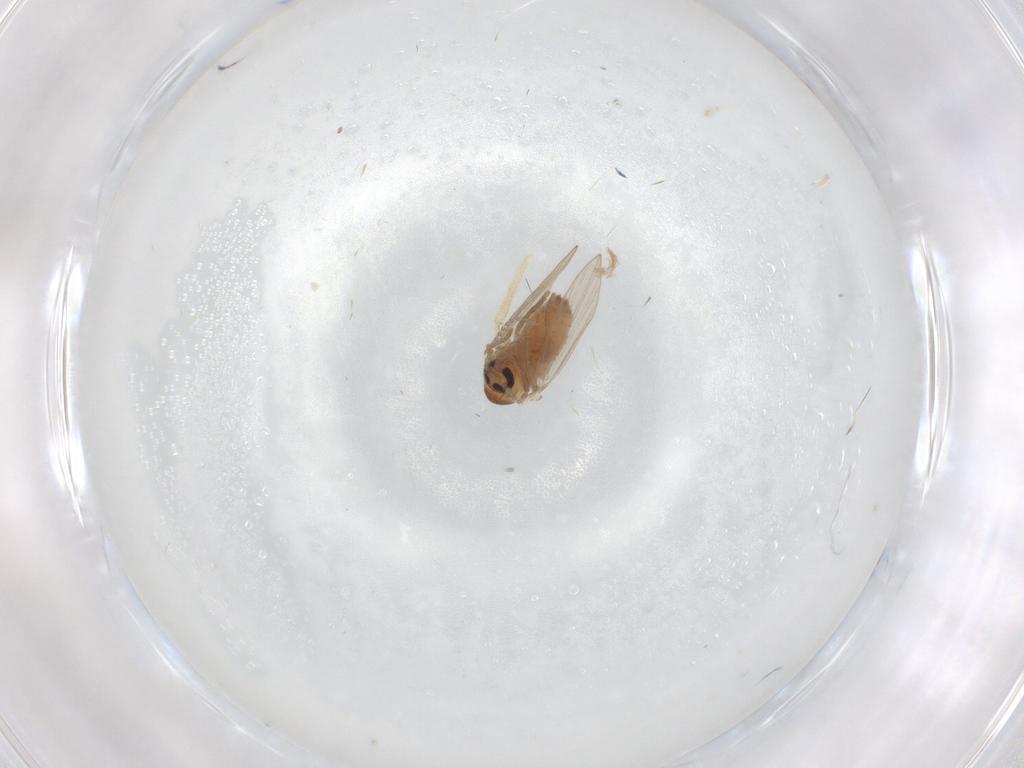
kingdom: Animalia
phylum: Arthropoda
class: Insecta
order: Diptera
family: Psychodidae
